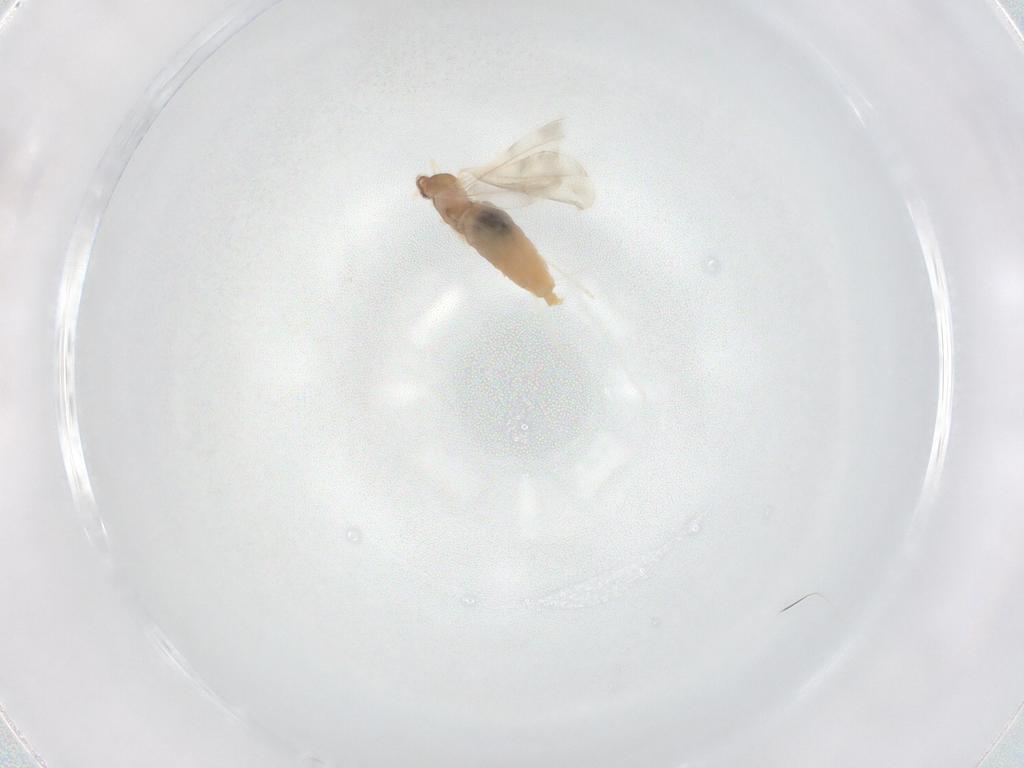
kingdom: Animalia
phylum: Arthropoda
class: Insecta
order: Diptera
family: Cecidomyiidae
